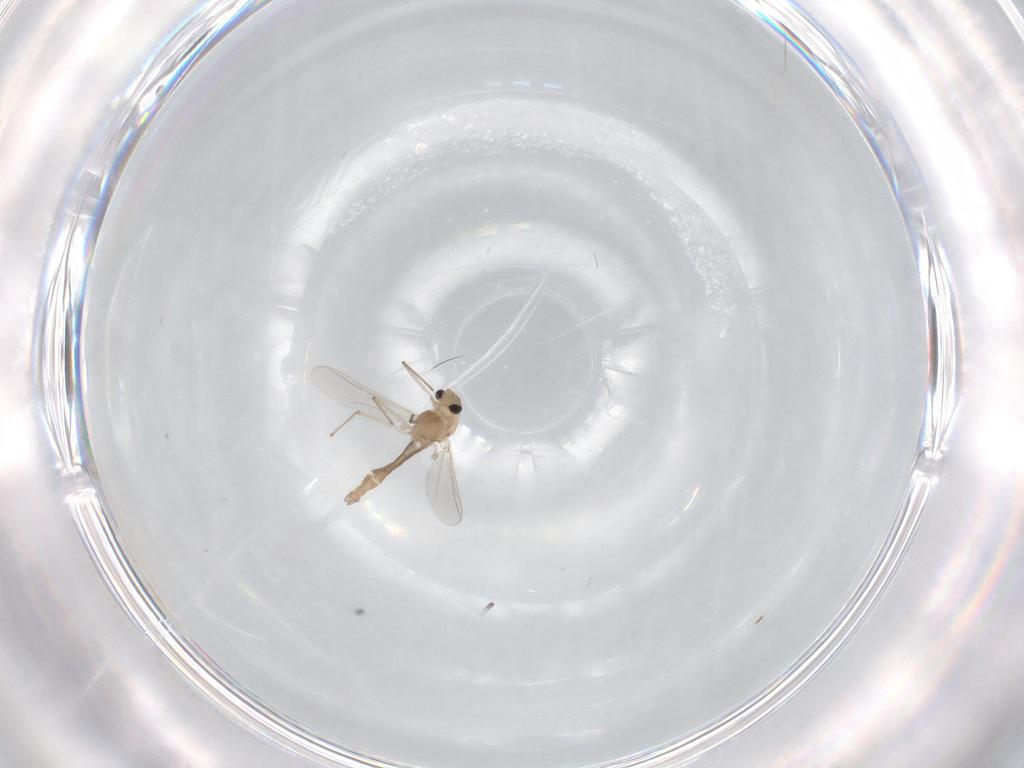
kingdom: Animalia
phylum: Arthropoda
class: Insecta
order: Diptera
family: Chironomidae
